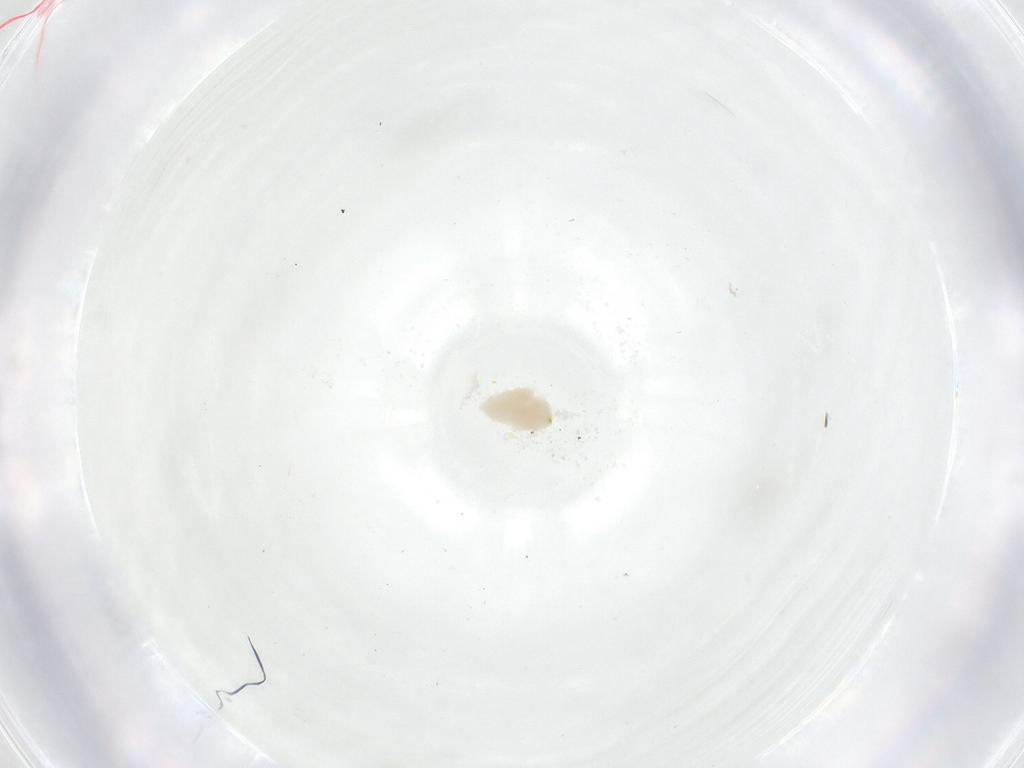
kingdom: Animalia
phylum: Arthropoda
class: Insecta
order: Diptera
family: Fergusoninidae
